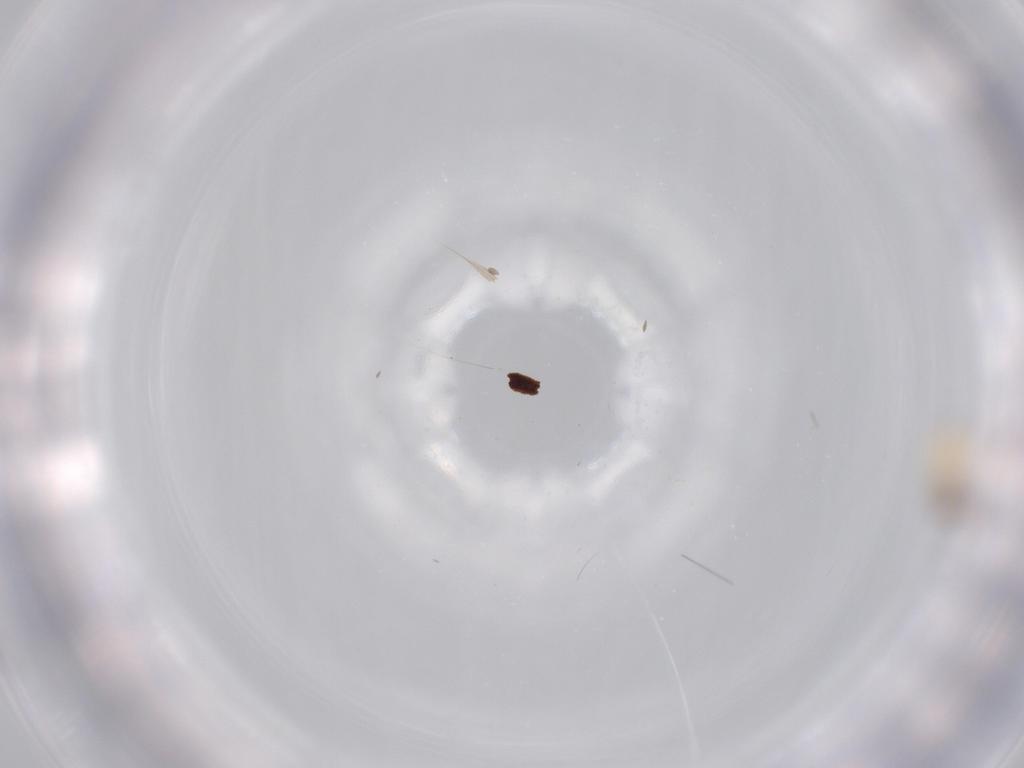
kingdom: Animalia
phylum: Arthropoda
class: Insecta
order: Diptera
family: Cecidomyiidae
